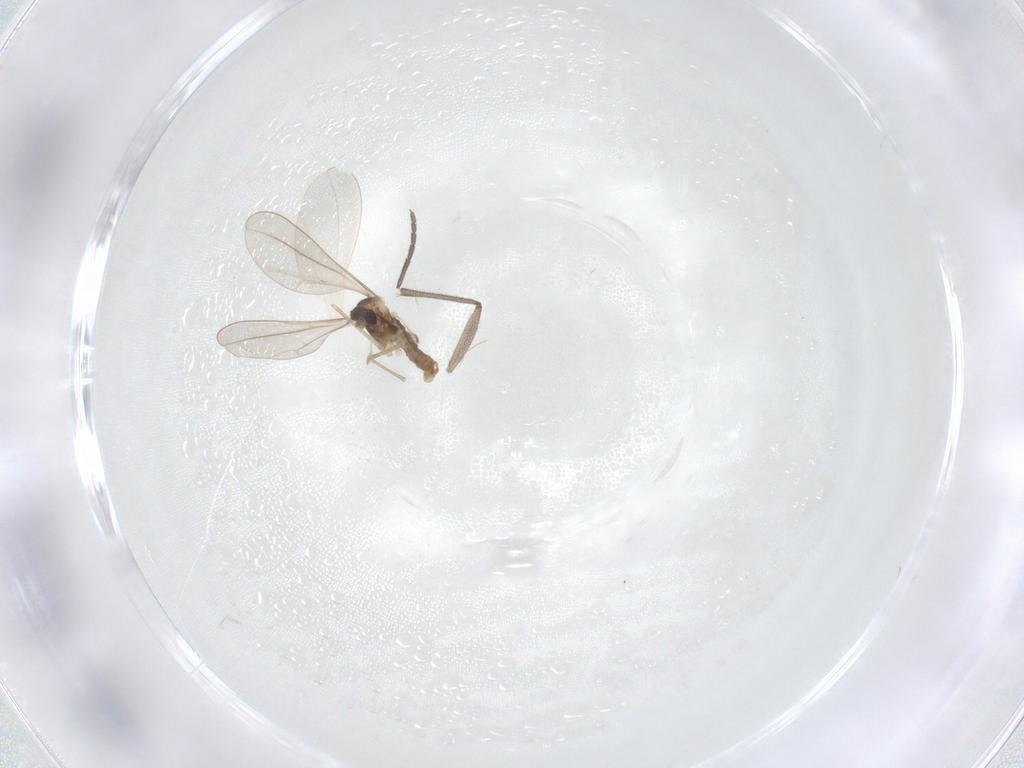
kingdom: Animalia
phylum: Arthropoda
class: Insecta
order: Diptera
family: Cecidomyiidae
